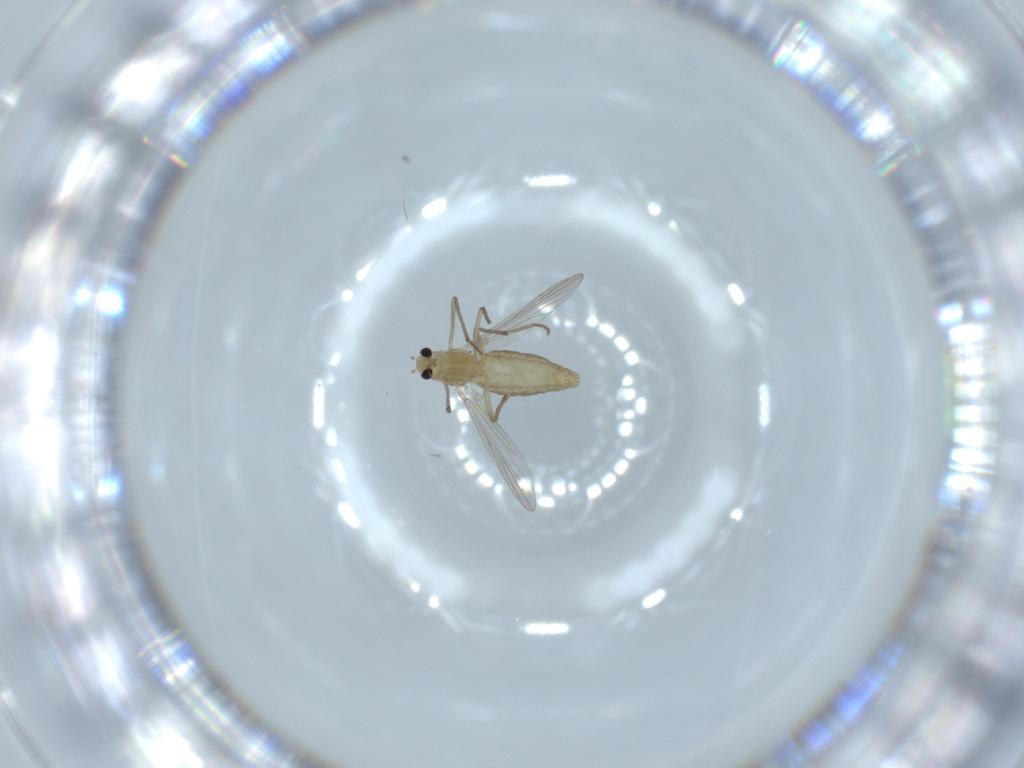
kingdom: Animalia
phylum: Arthropoda
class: Insecta
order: Diptera
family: Chironomidae
